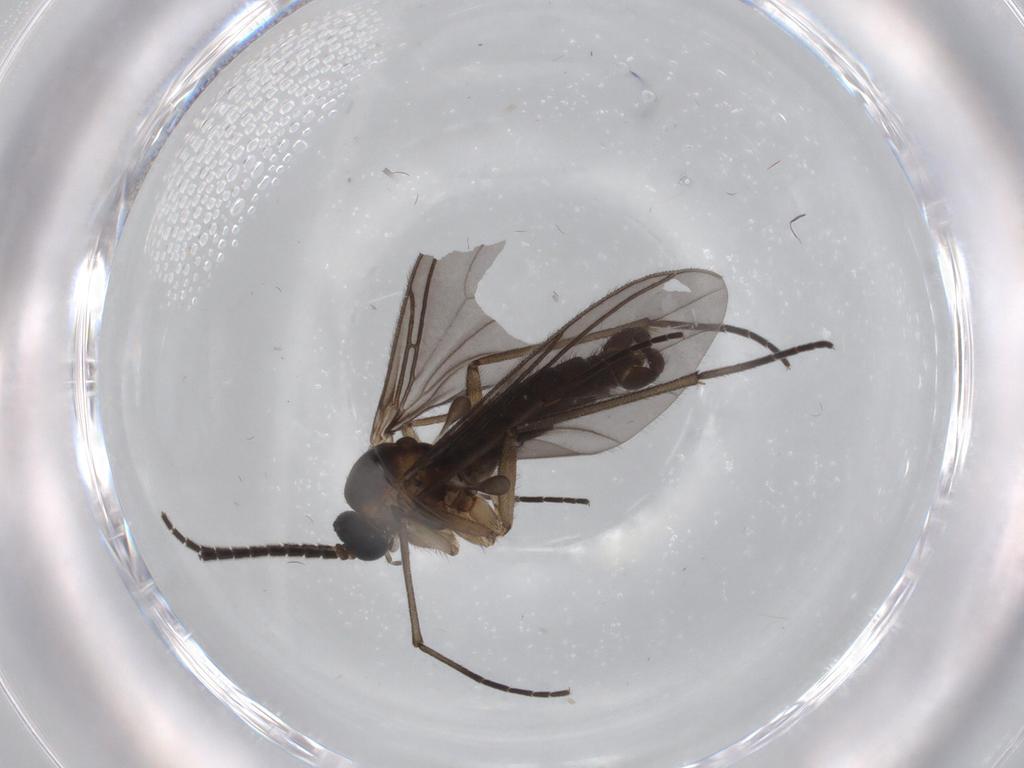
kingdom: Animalia
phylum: Arthropoda
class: Insecta
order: Diptera
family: Sciaridae
